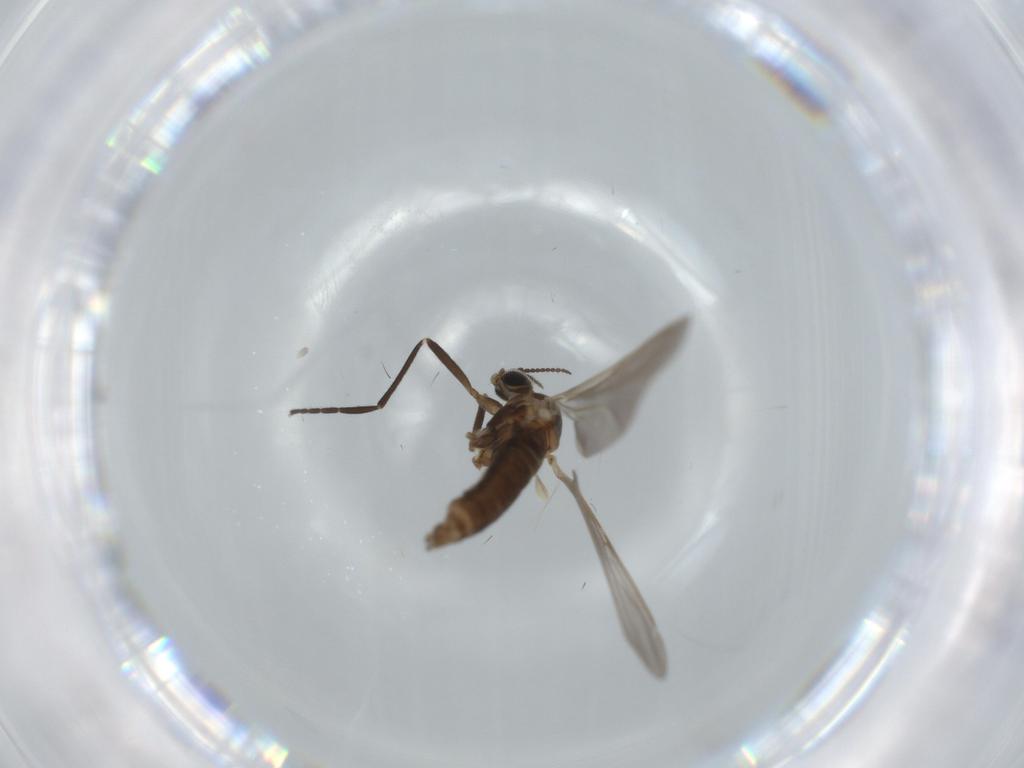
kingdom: Animalia
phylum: Arthropoda
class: Insecta
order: Diptera
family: Cecidomyiidae
